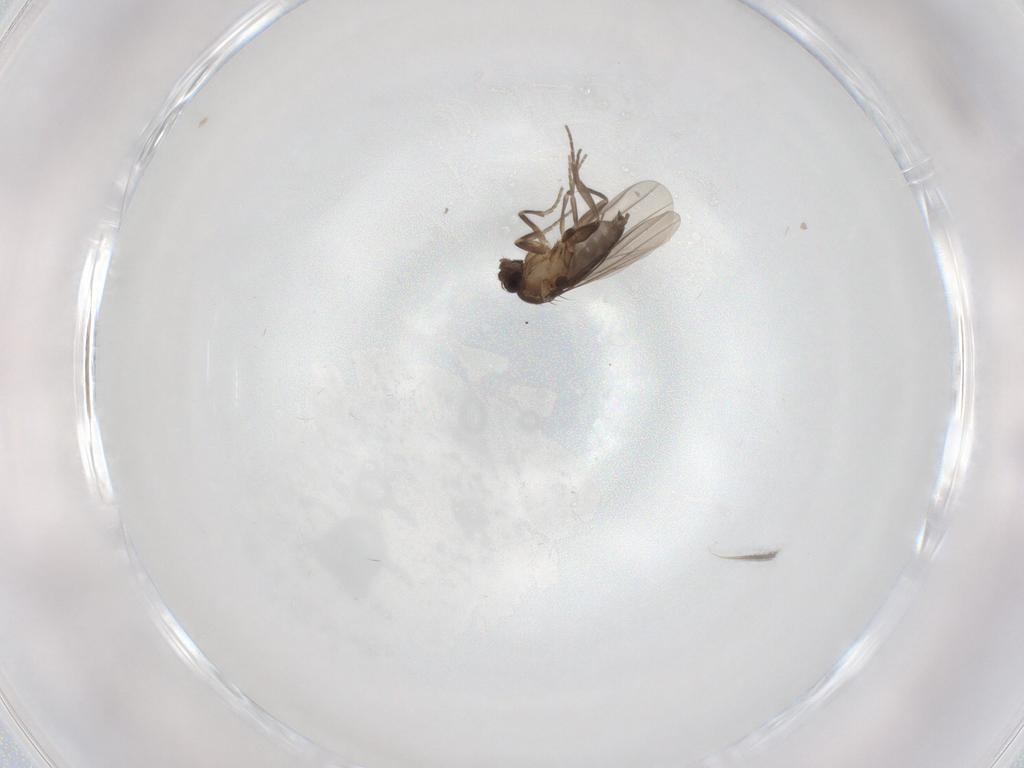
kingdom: Animalia
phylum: Arthropoda
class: Insecta
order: Diptera
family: Phoridae
